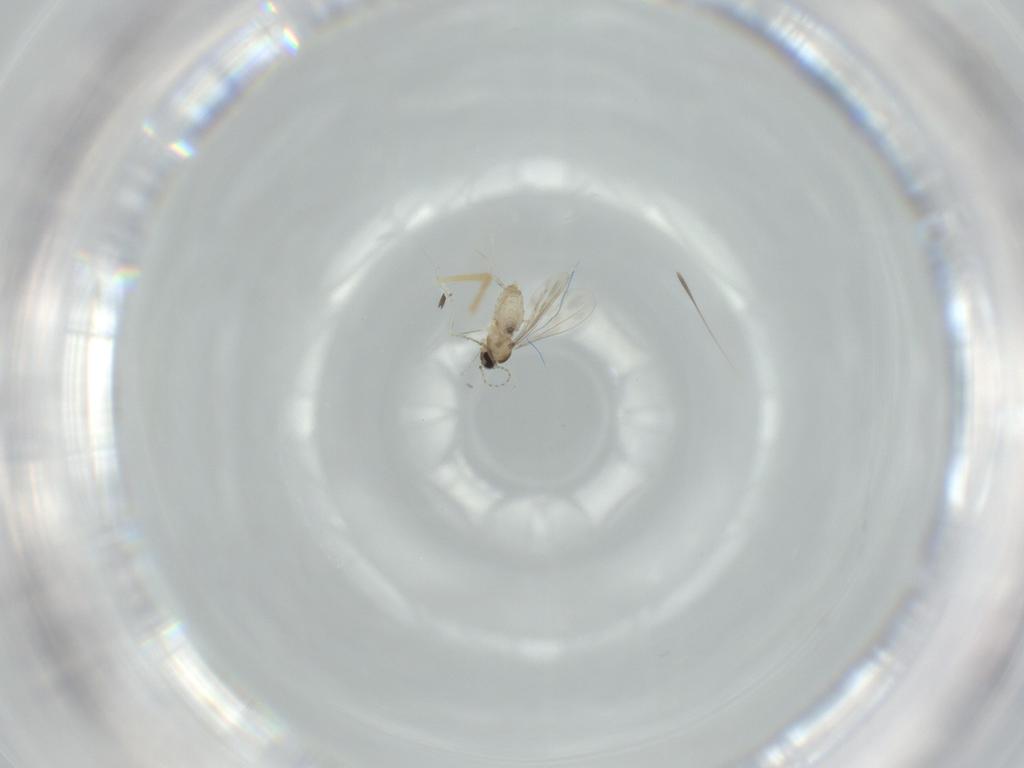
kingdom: Animalia
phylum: Arthropoda
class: Insecta
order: Diptera
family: Cecidomyiidae
